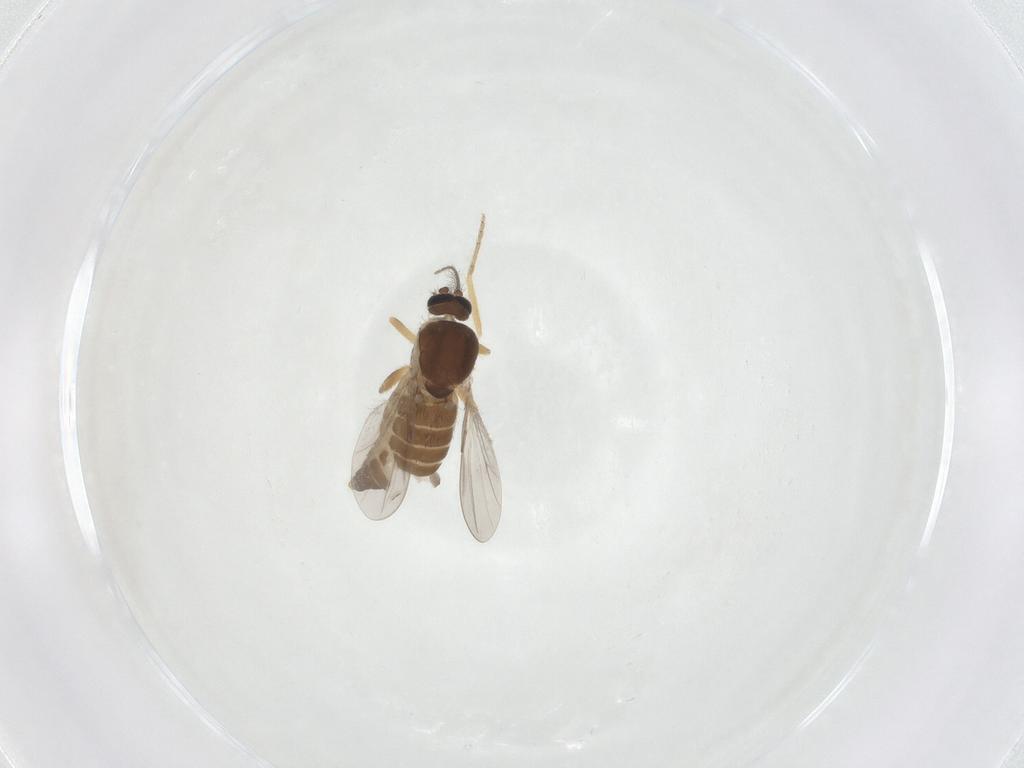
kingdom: Animalia
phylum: Arthropoda
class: Insecta
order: Diptera
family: Ceratopogonidae
